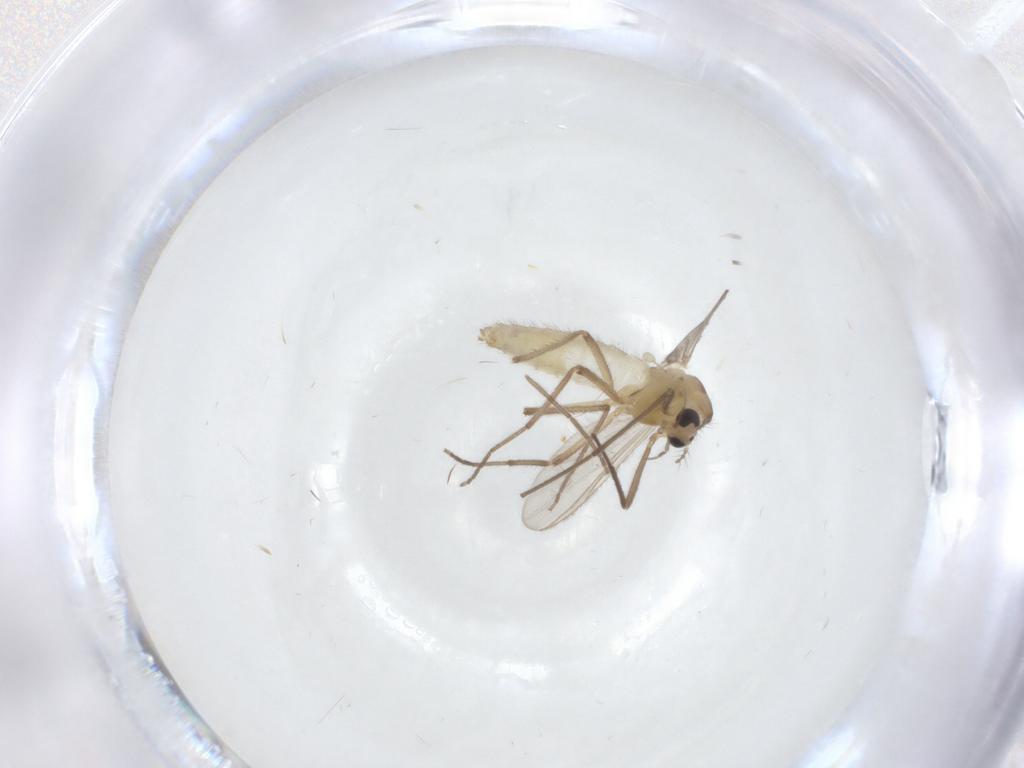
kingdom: Animalia
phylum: Arthropoda
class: Insecta
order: Diptera
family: Chironomidae
